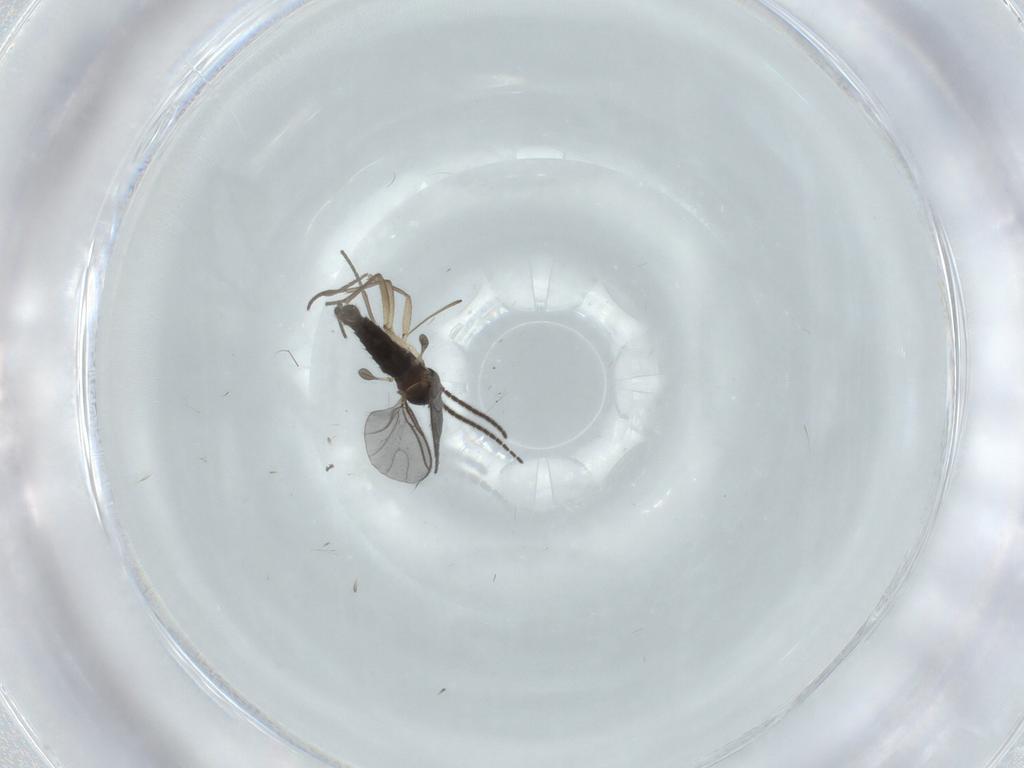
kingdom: Animalia
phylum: Arthropoda
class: Insecta
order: Diptera
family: Sciaridae
